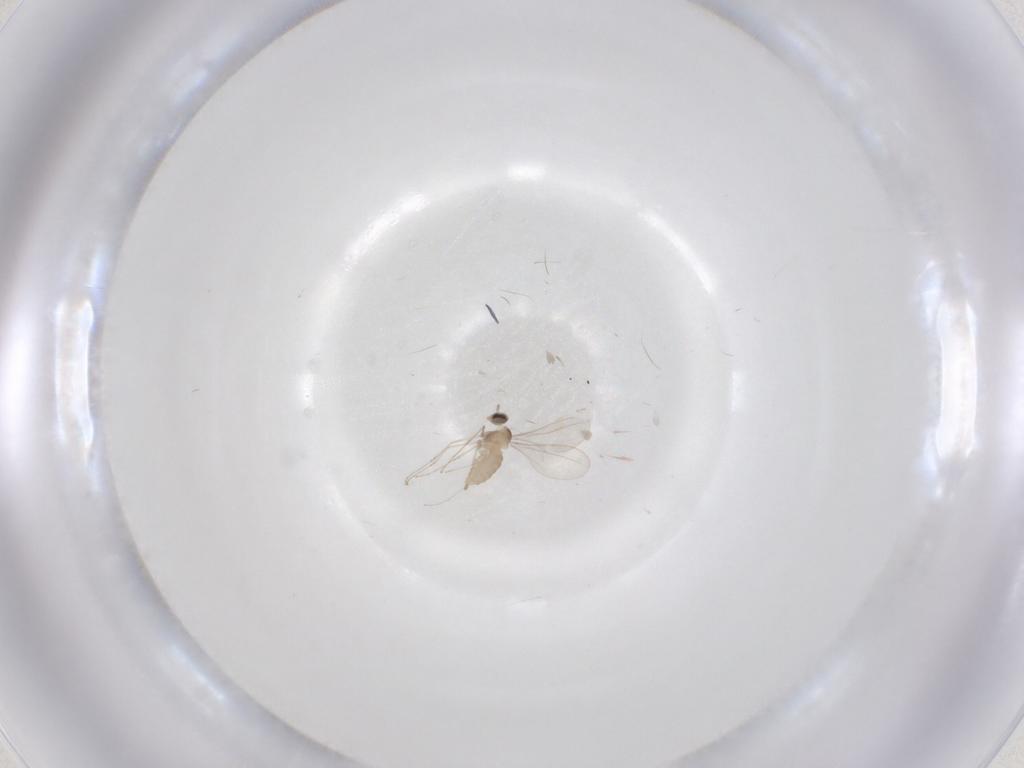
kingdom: Animalia
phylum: Arthropoda
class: Insecta
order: Diptera
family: Cecidomyiidae
